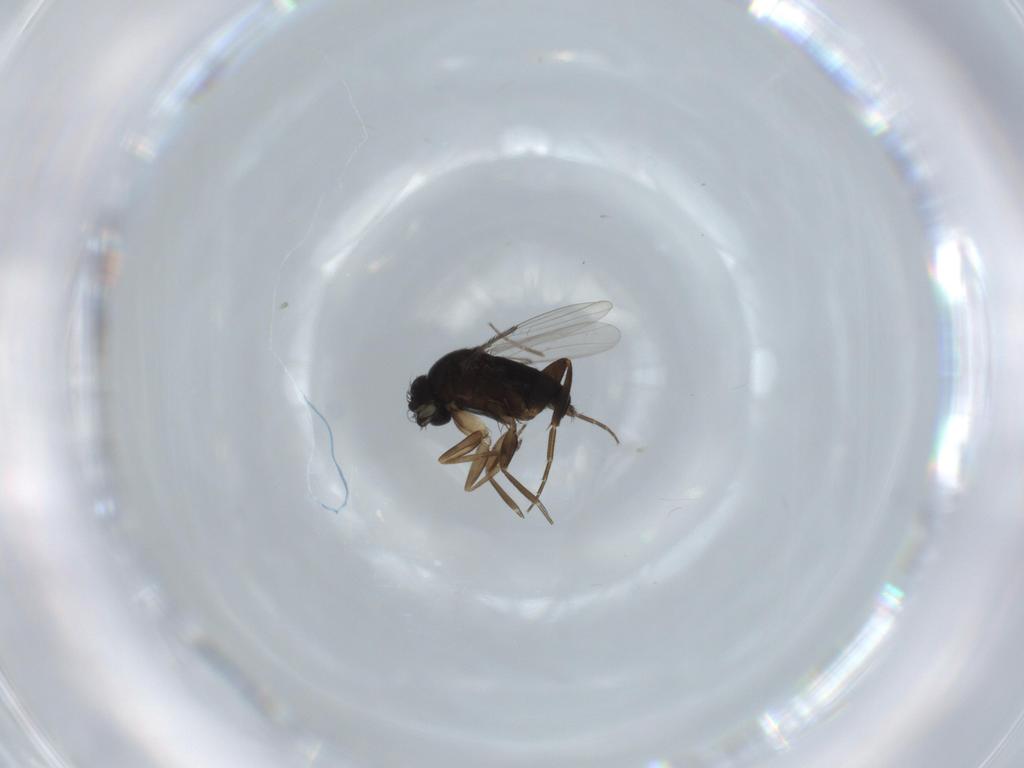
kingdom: Animalia
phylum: Arthropoda
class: Insecta
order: Diptera
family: Phoridae
